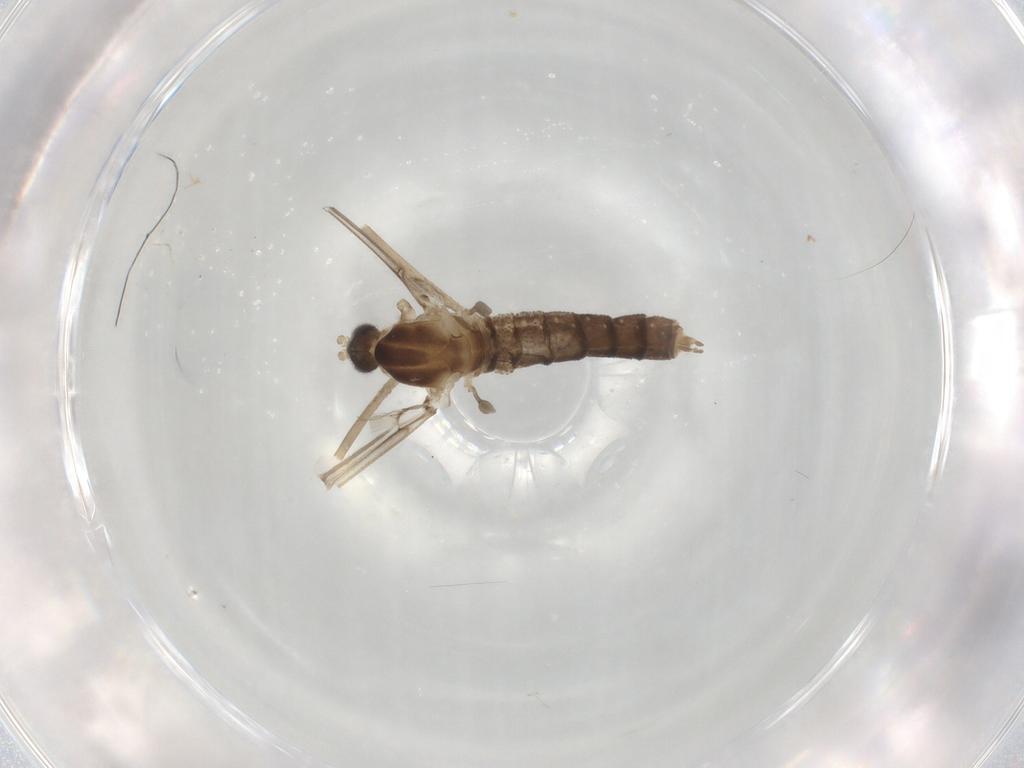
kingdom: Animalia
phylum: Arthropoda
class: Insecta
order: Diptera
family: Cecidomyiidae
